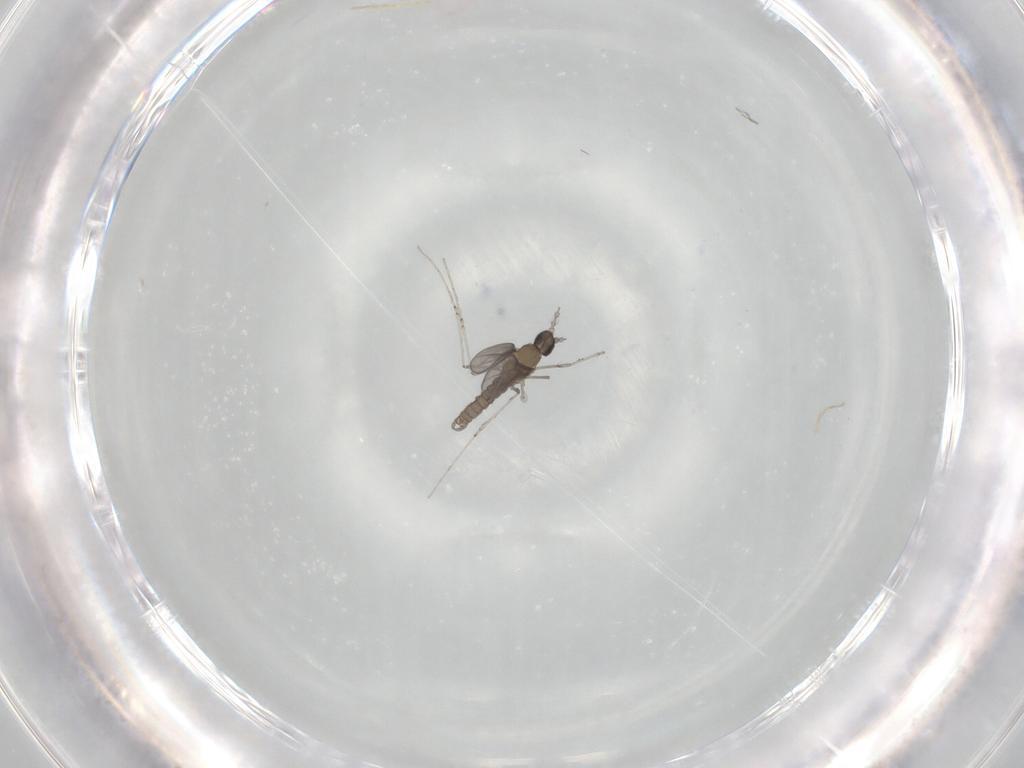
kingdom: Animalia
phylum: Arthropoda
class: Insecta
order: Diptera
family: Cecidomyiidae
